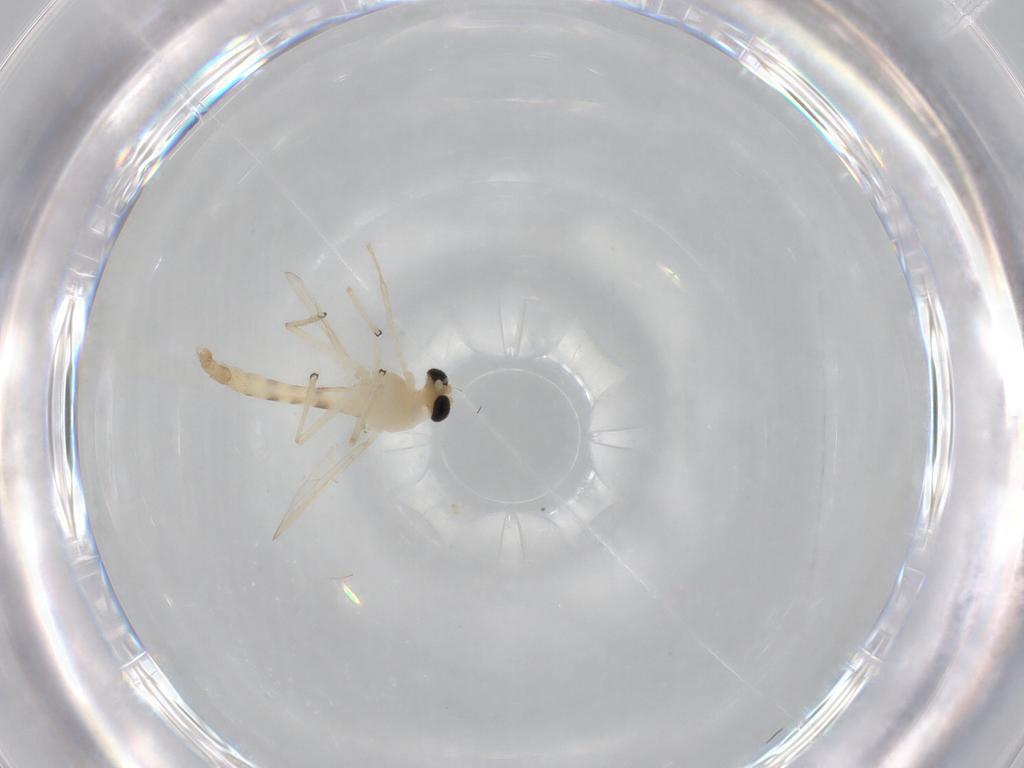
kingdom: Animalia
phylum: Arthropoda
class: Insecta
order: Diptera
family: Chironomidae
